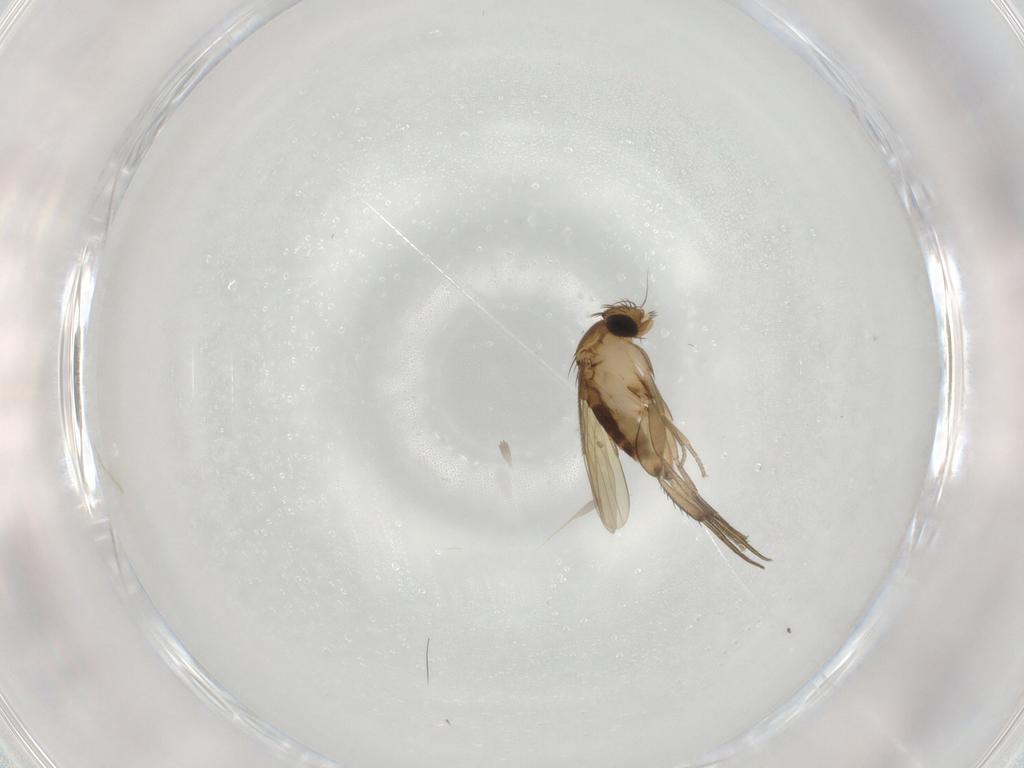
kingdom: Animalia
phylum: Arthropoda
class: Insecta
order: Diptera
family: Phoridae
